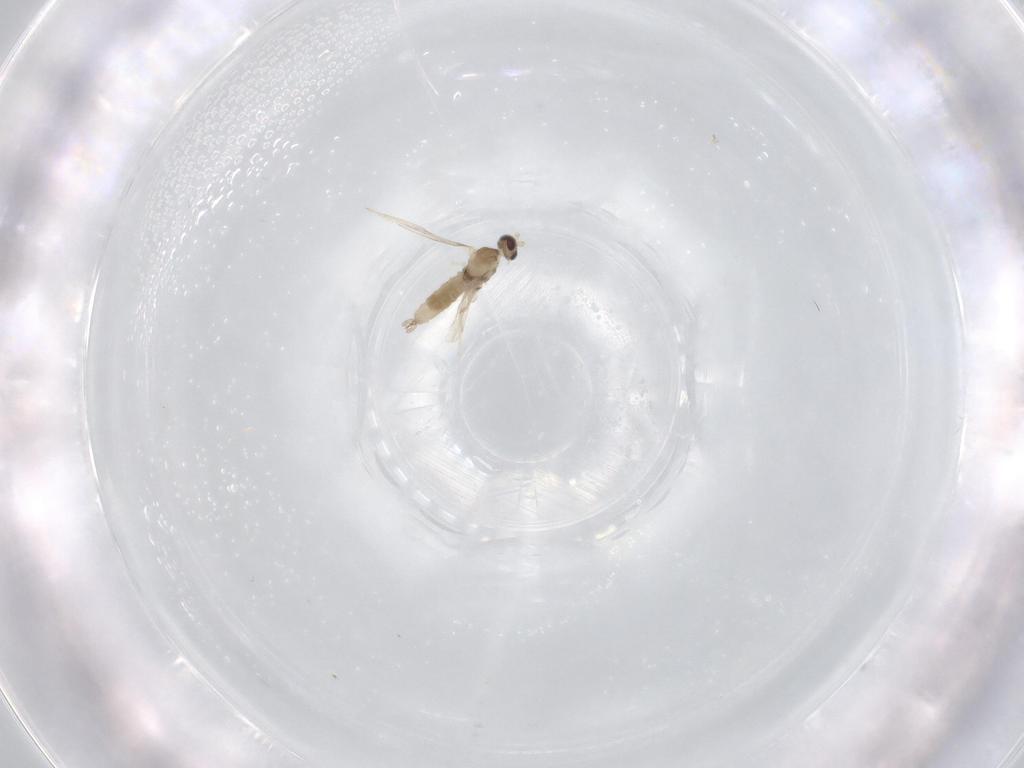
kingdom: Animalia
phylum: Arthropoda
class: Insecta
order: Diptera
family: Cecidomyiidae
